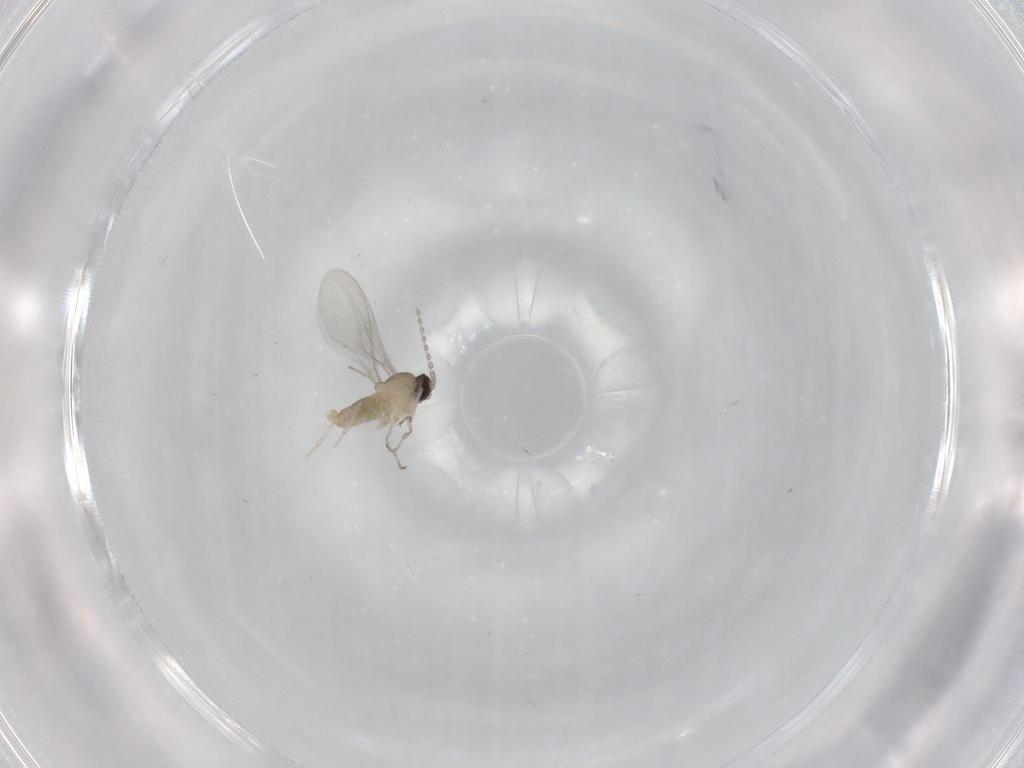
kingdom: Animalia
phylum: Arthropoda
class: Insecta
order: Diptera
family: Cecidomyiidae
